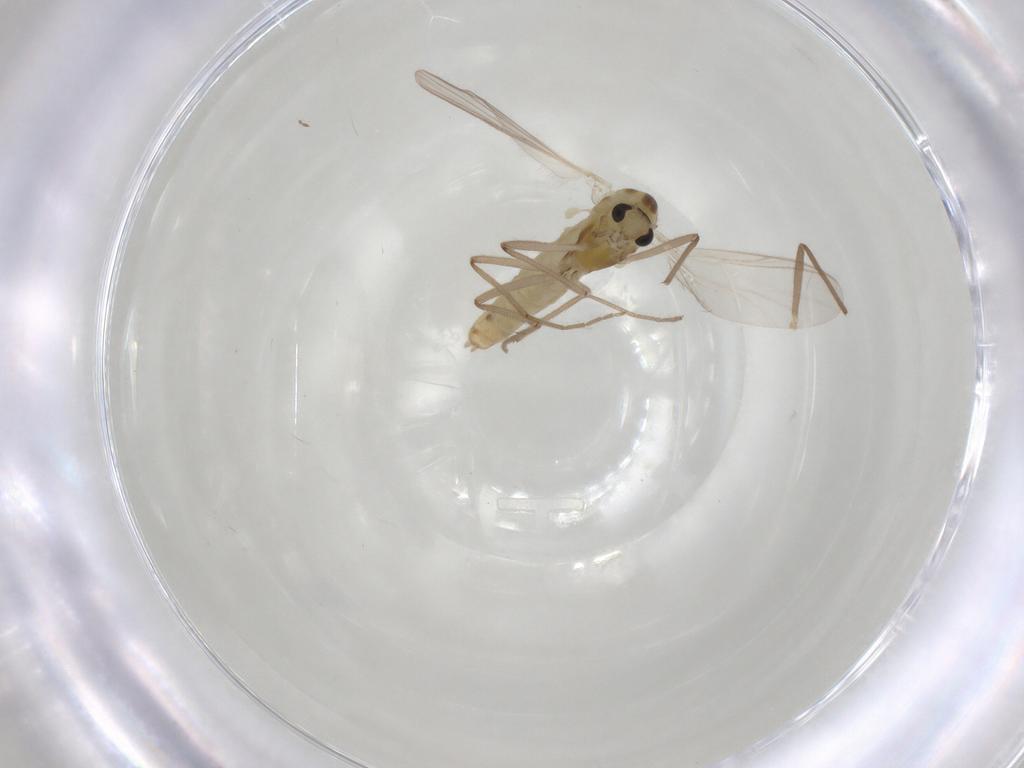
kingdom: Animalia
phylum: Arthropoda
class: Insecta
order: Diptera
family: Chironomidae
